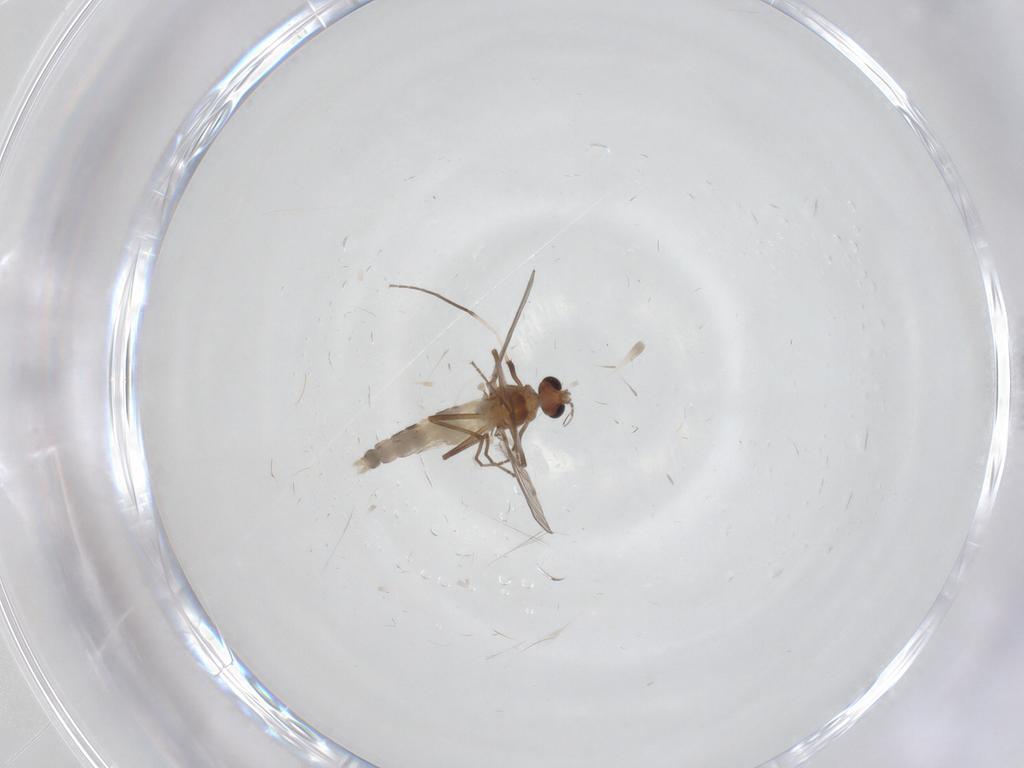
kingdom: Animalia
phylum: Arthropoda
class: Insecta
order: Diptera
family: Chironomidae
